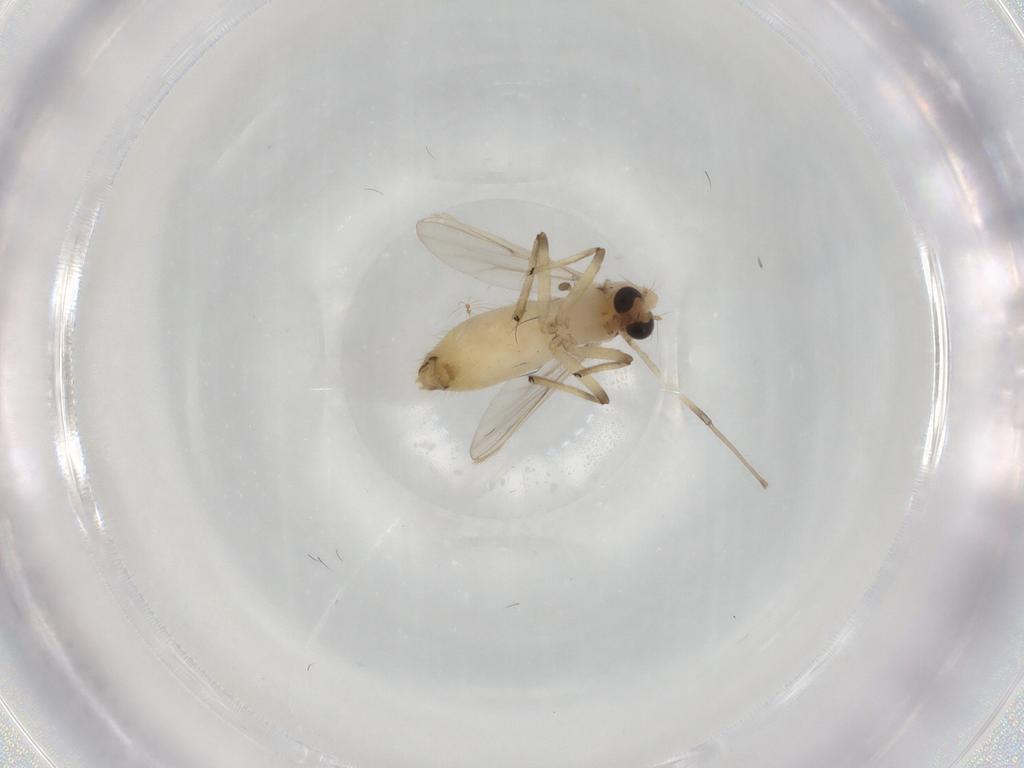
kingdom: Animalia
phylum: Arthropoda
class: Insecta
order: Diptera
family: Chironomidae
